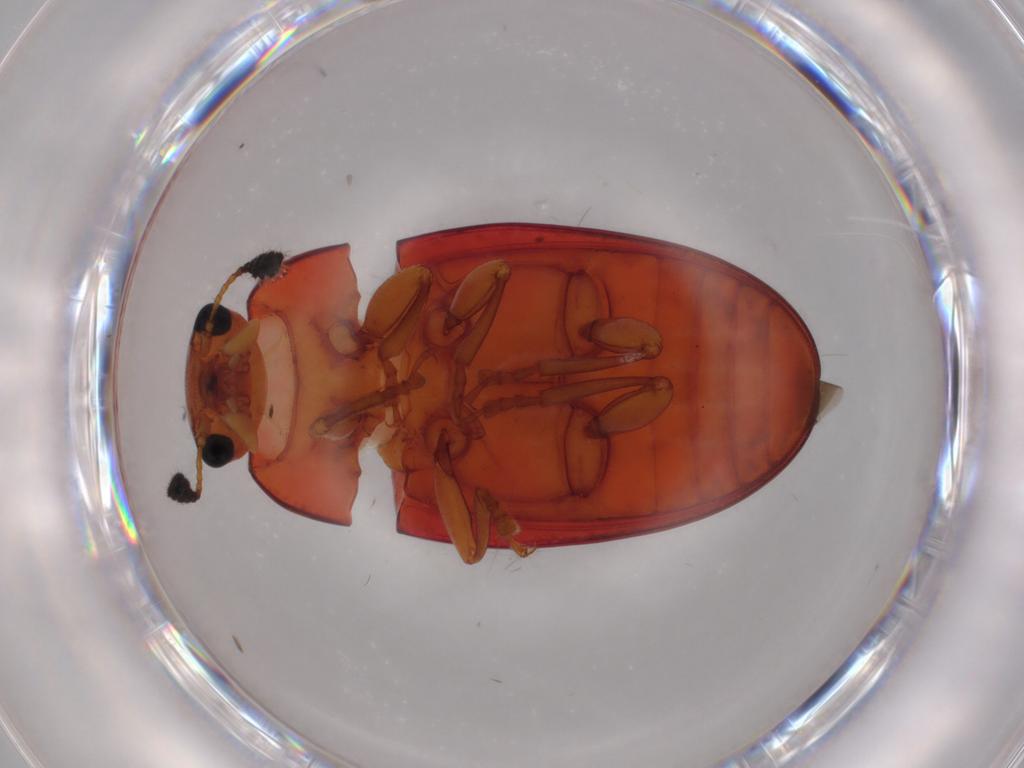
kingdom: Animalia
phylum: Arthropoda
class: Insecta
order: Coleoptera
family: Erotylidae
